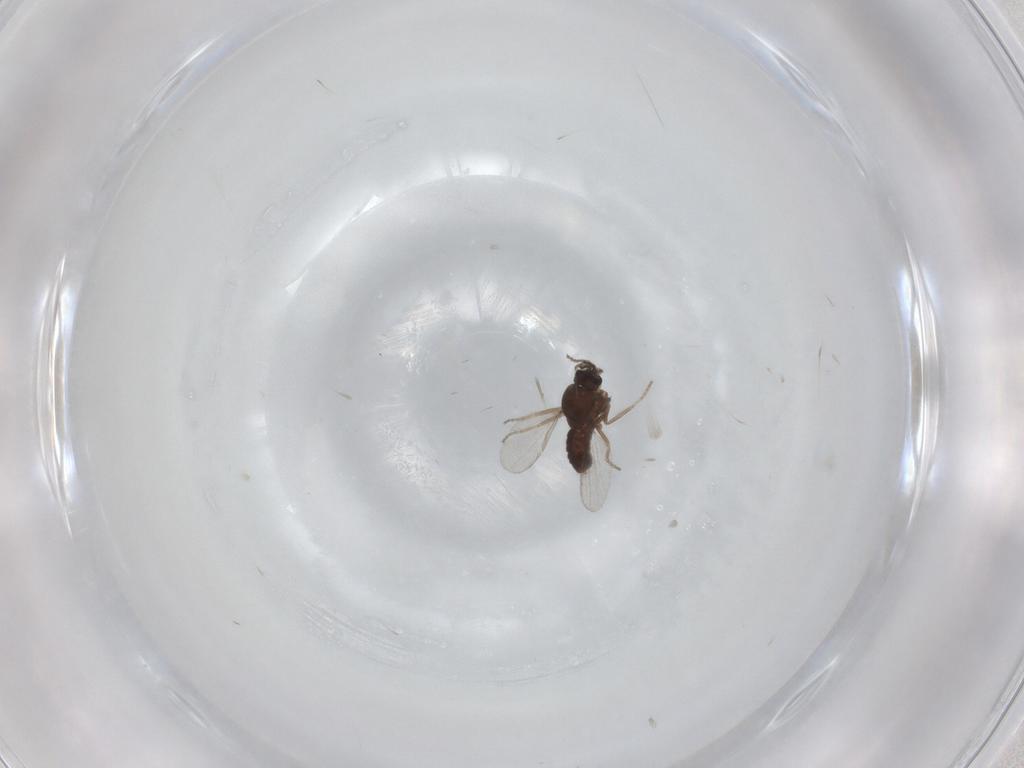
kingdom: Animalia
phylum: Arthropoda
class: Insecta
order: Diptera
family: Ceratopogonidae
